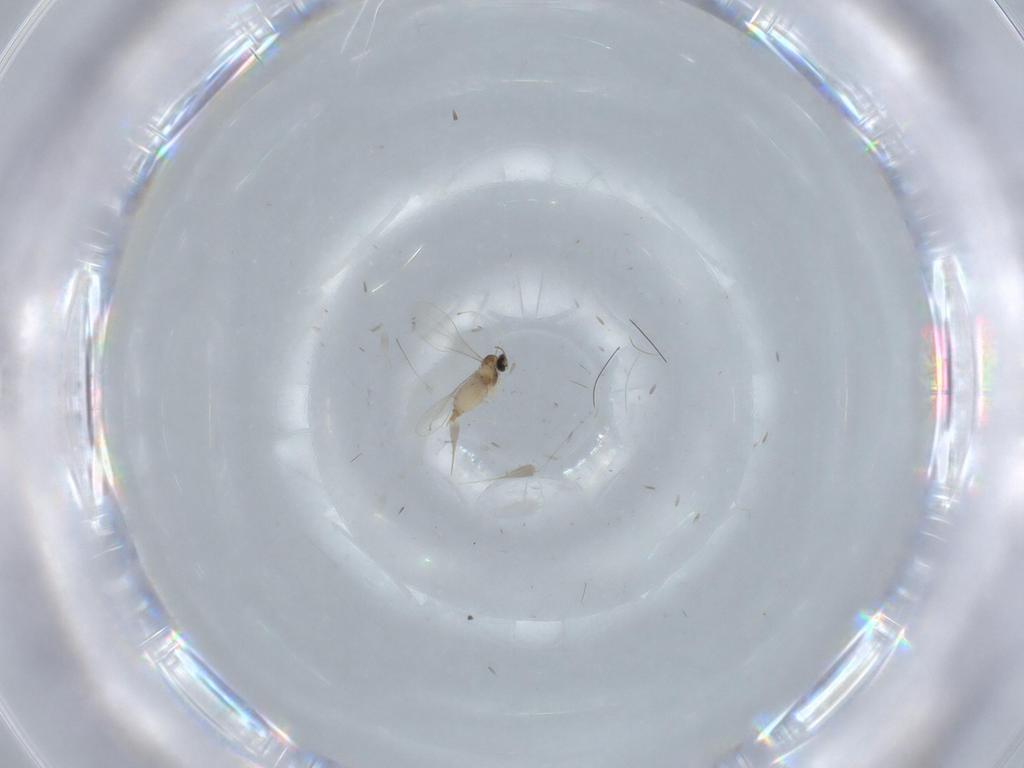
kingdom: Animalia
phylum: Arthropoda
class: Insecta
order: Diptera
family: Cecidomyiidae
